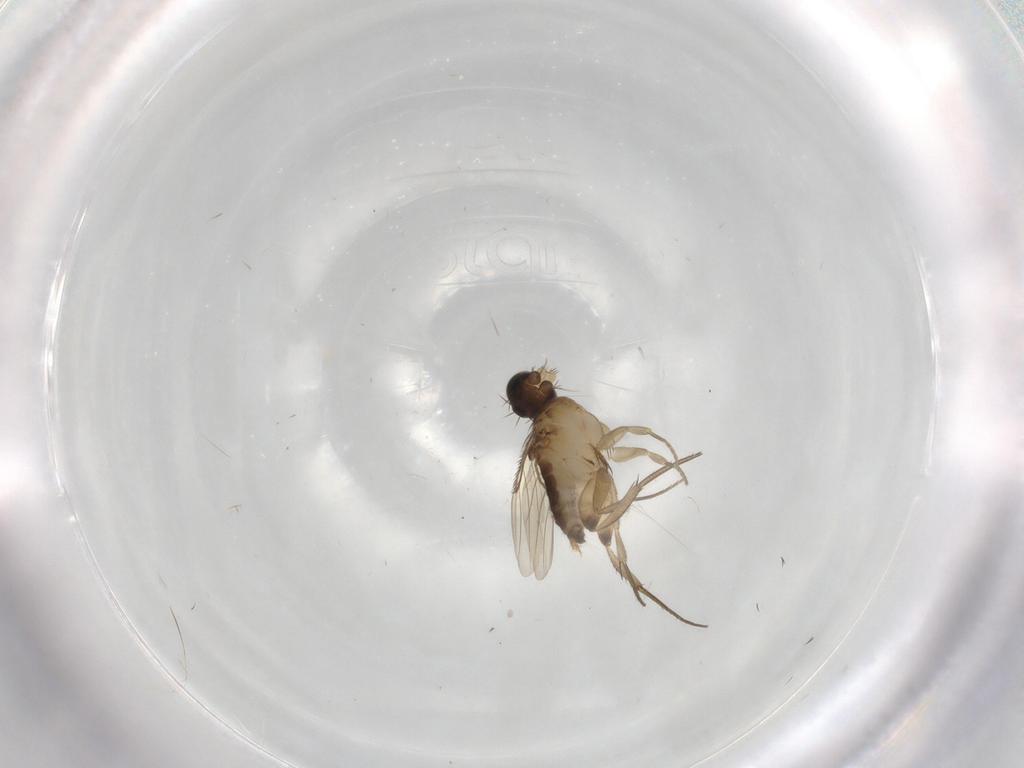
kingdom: Animalia
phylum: Arthropoda
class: Insecta
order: Diptera
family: Phoridae
